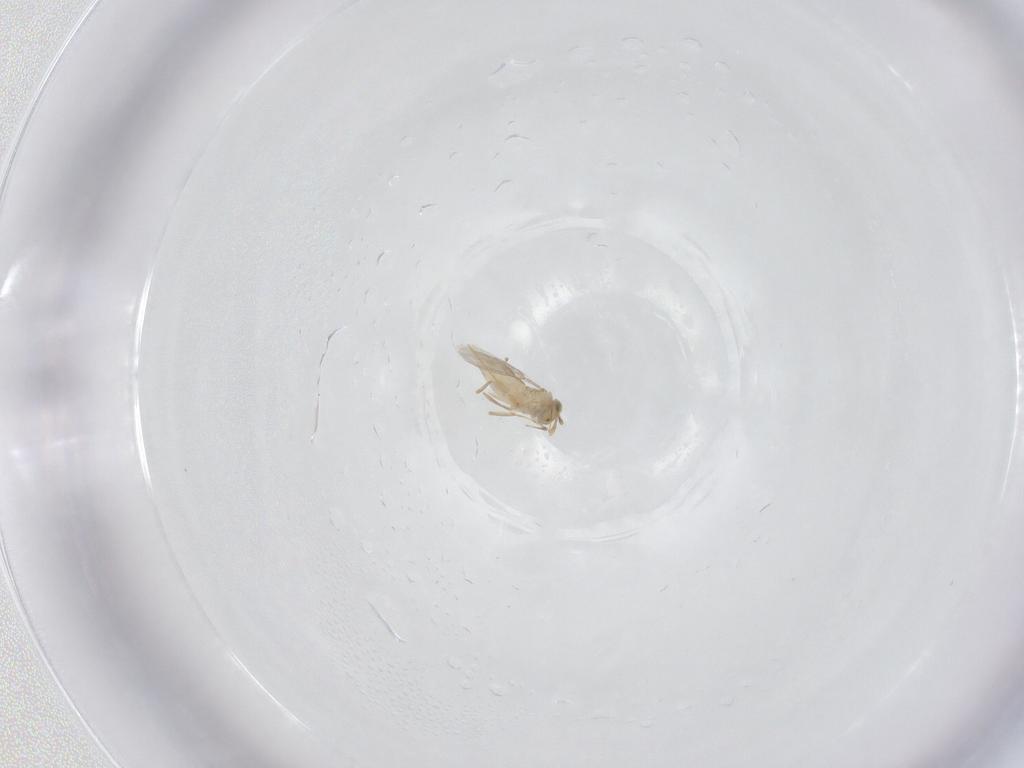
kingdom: Animalia
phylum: Arthropoda
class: Insecta
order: Hymenoptera
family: Aphelinidae
